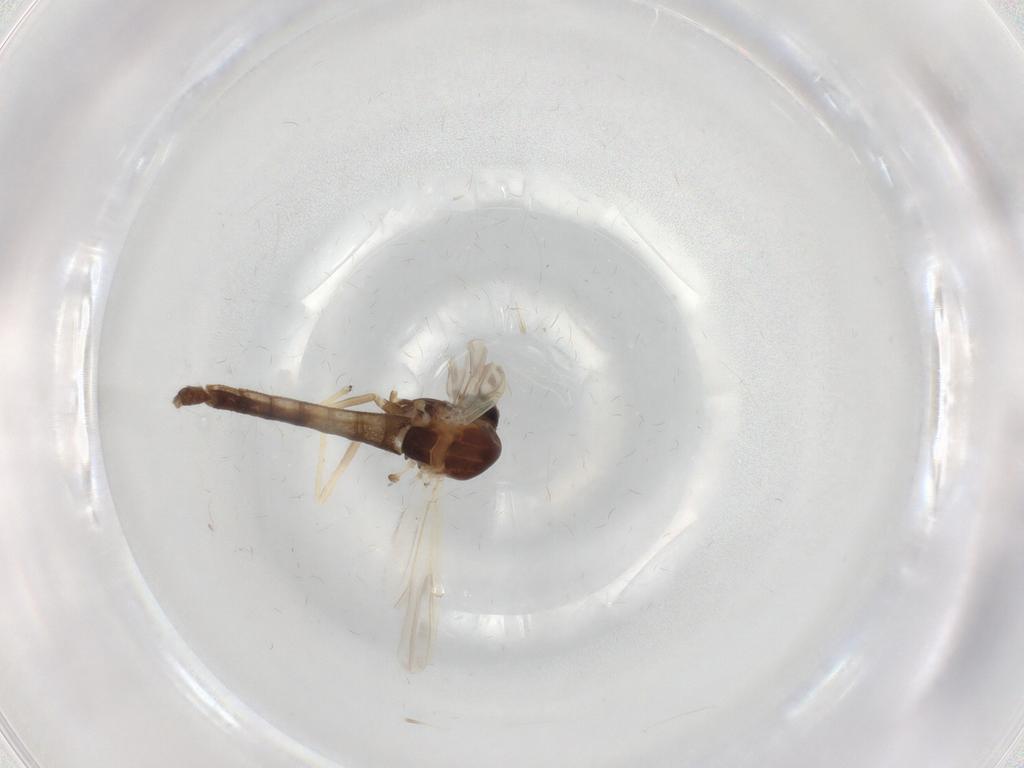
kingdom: Animalia
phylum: Arthropoda
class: Insecta
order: Diptera
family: Chironomidae
